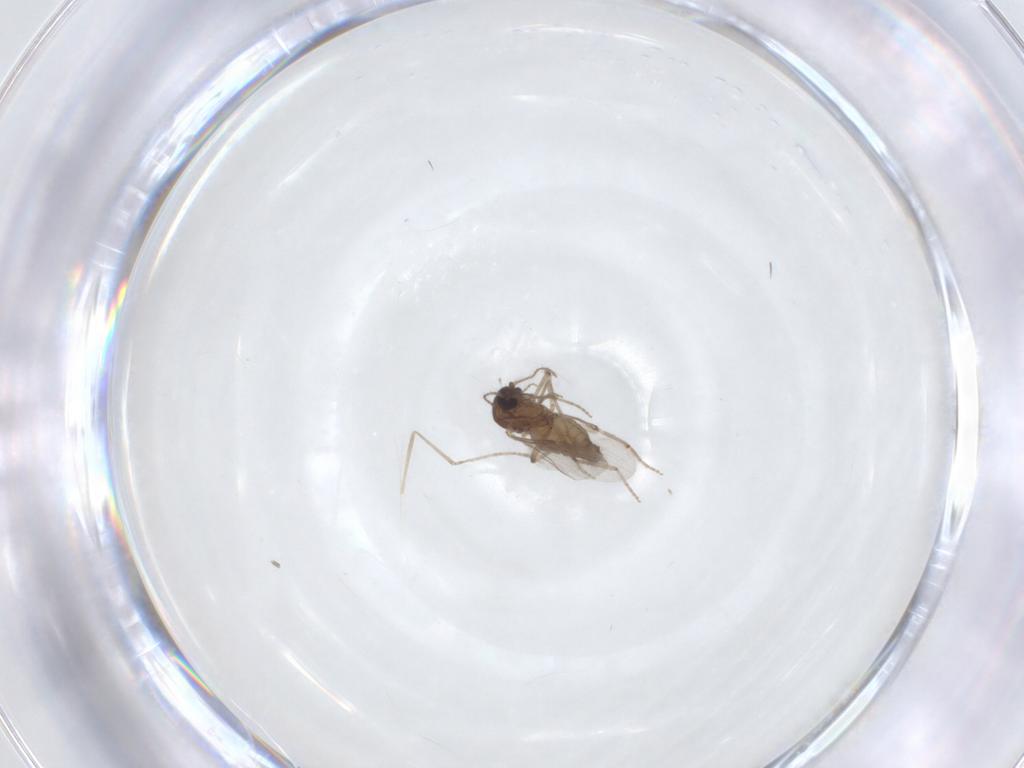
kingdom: Animalia
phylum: Arthropoda
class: Insecta
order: Diptera
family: Ceratopogonidae
